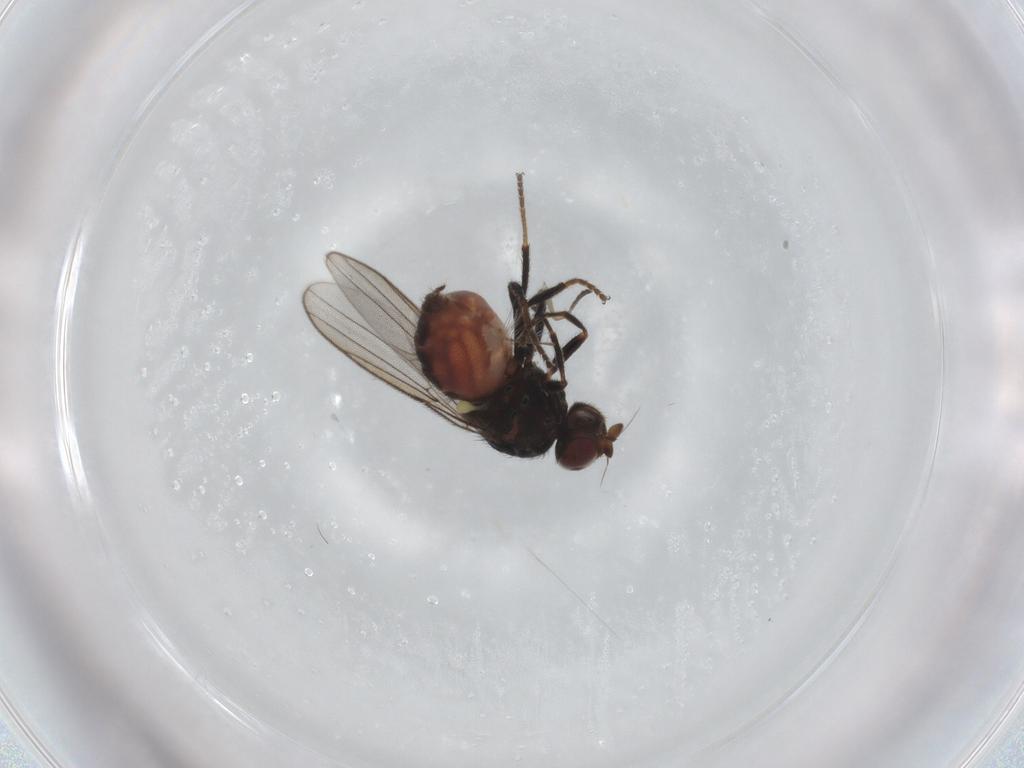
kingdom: Animalia
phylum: Arthropoda
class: Insecta
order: Diptera
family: Chloropidae
